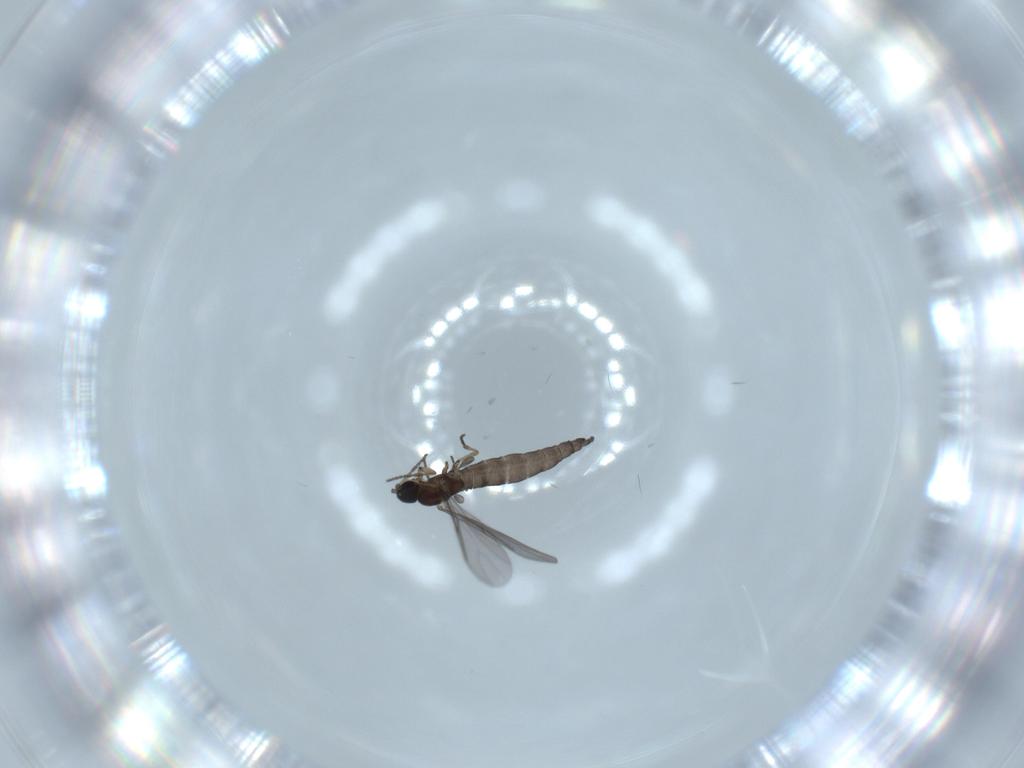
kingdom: Animalia
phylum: Arthropoda
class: Insecta
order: Diptera
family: Sciaridae
